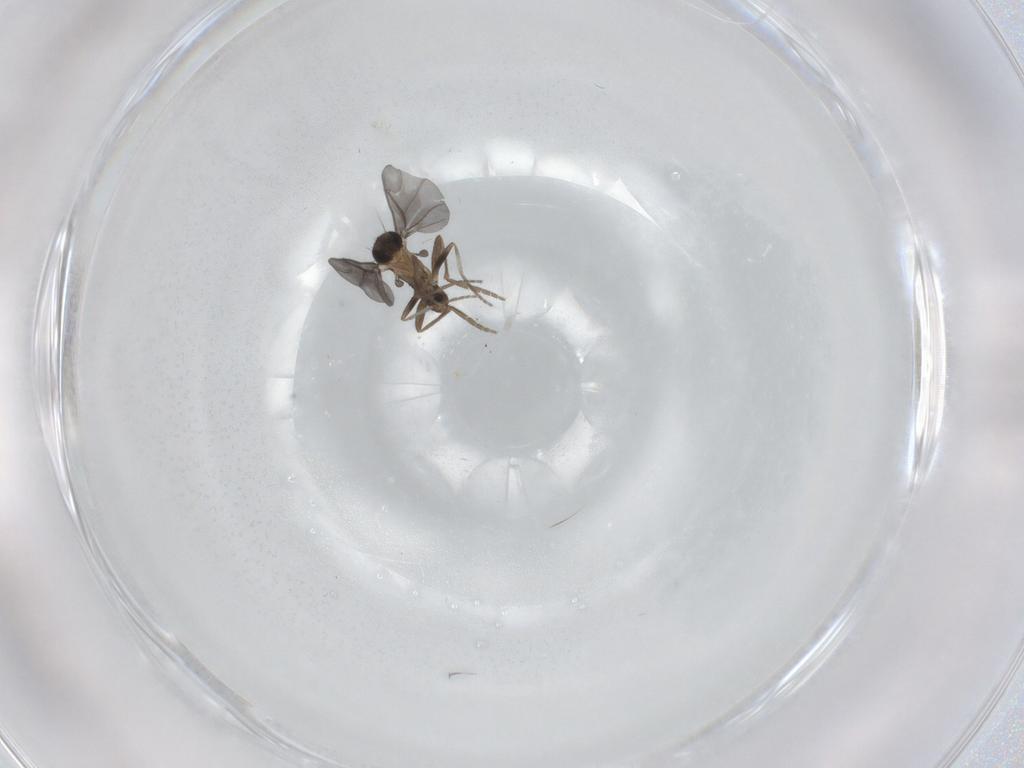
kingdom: Animalia
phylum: Arthropoda
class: Insecta
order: Diptera
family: Phoridae
